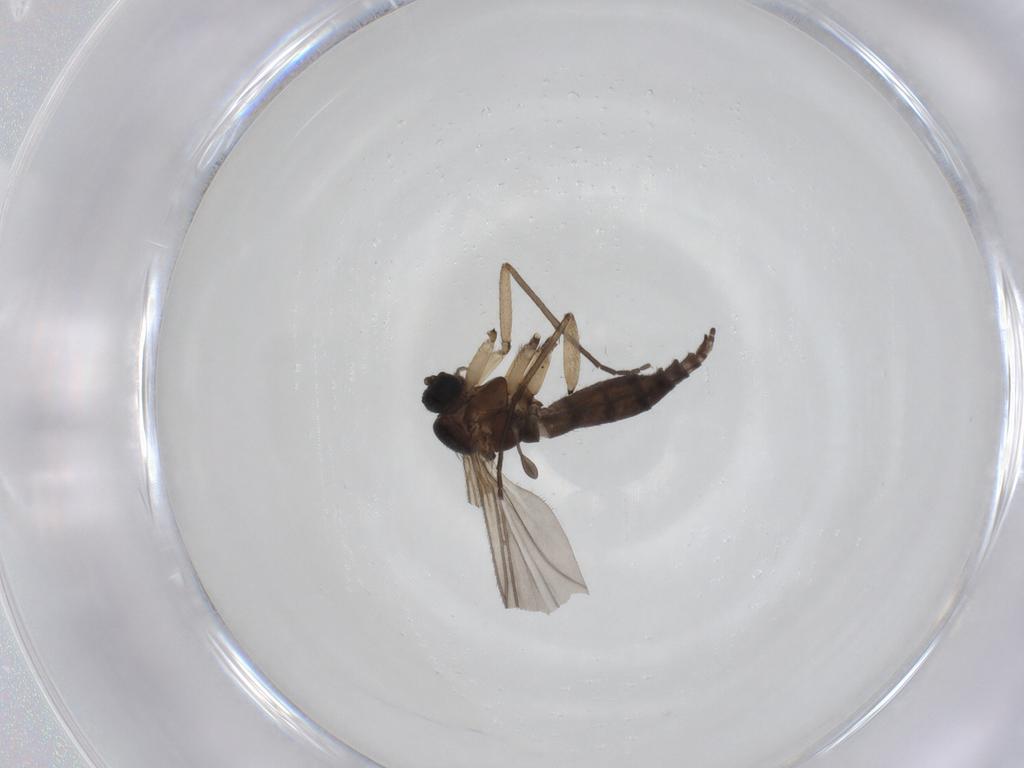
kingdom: Animalia
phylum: Arthropoda
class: Insecta
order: Diptera
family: Sciaridae
